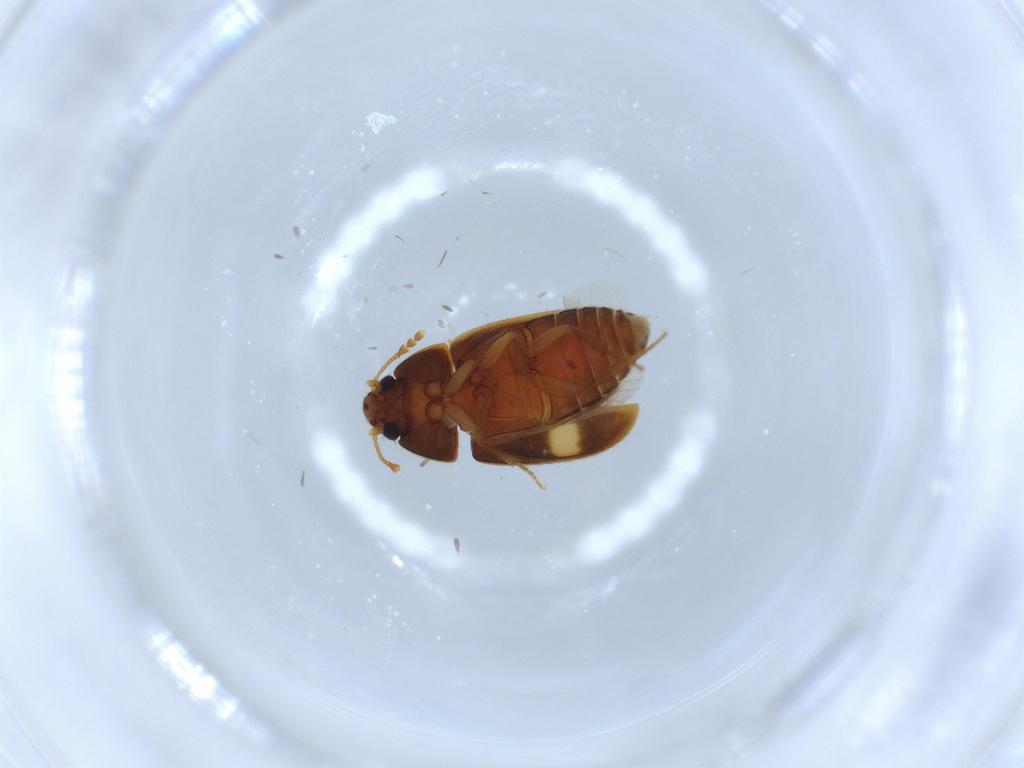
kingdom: Animalia
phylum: Arthropoda
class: Insecta
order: Coleoptera
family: Mycetophagidae
